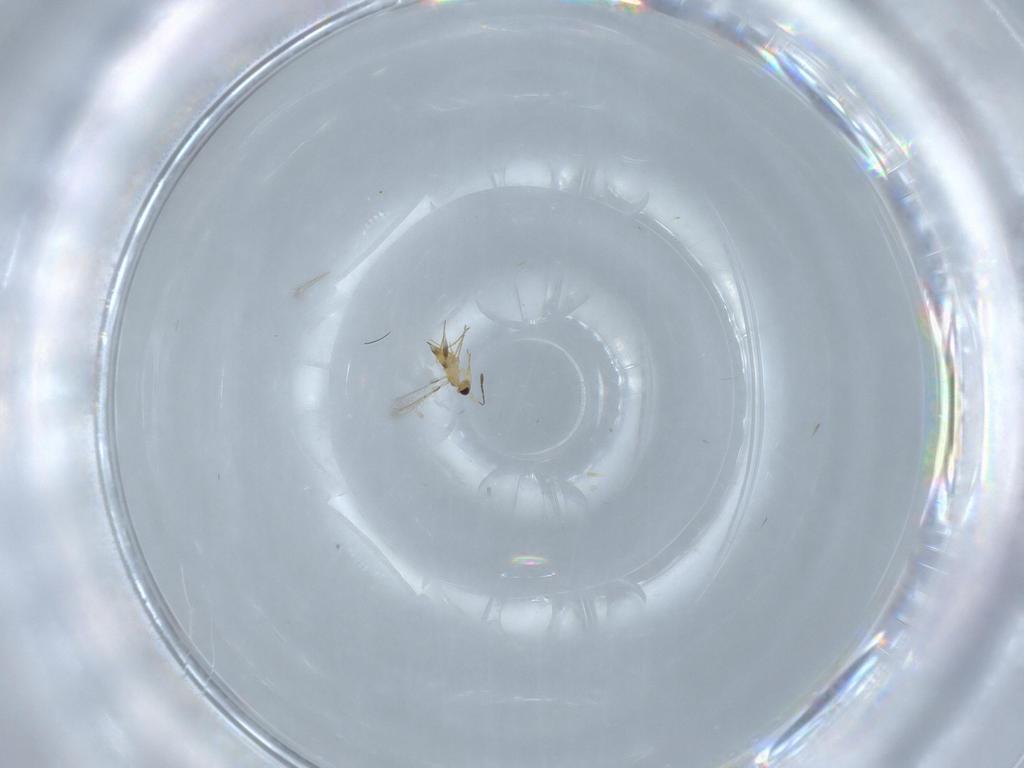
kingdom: Animalia
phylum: Arthropoda
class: Insecta
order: Hymenoptera
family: Mymaridae
